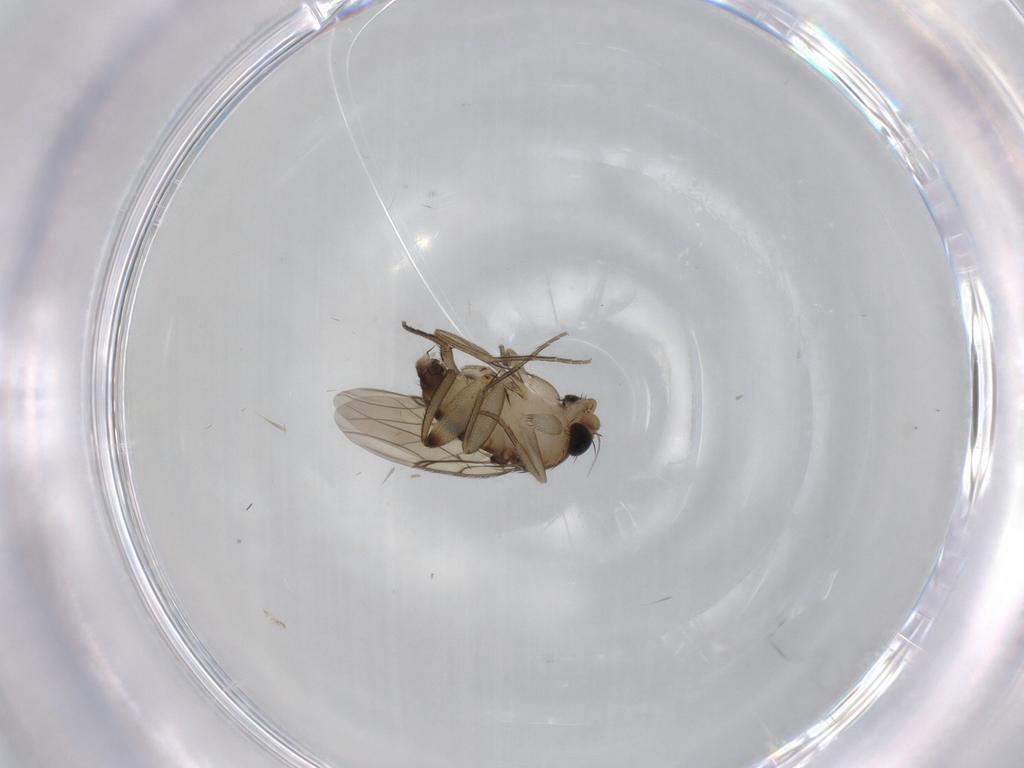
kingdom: Animalia
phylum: Arthropoda
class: Insecta
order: Diptera
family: Phoridae
